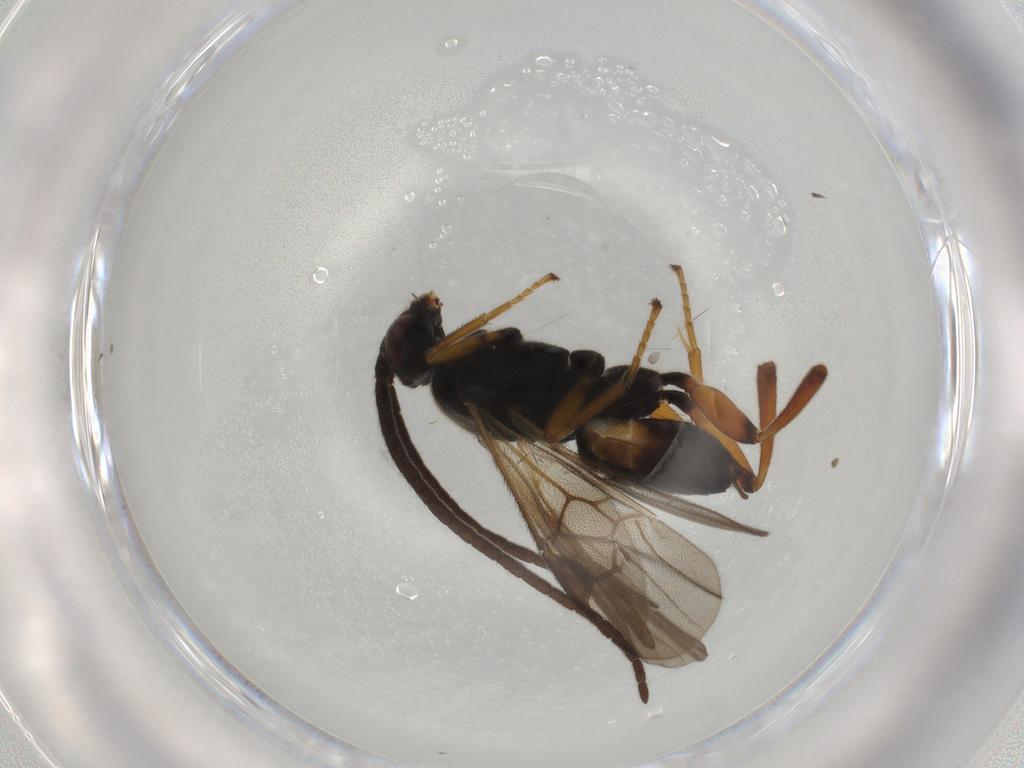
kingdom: Animalia
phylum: Arthropoda
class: Insecta
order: Hymenoptera
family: Braconidae
